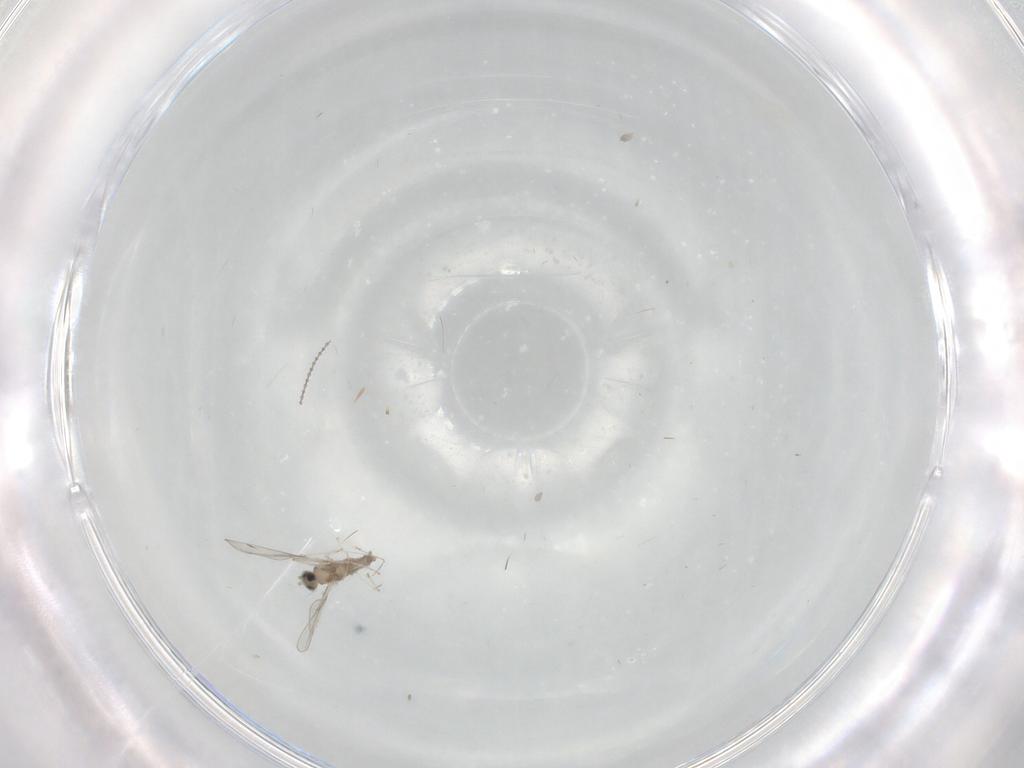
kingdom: Animalia
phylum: Arthropoda
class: Insecta
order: Diptera
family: Cecidomyiidae
